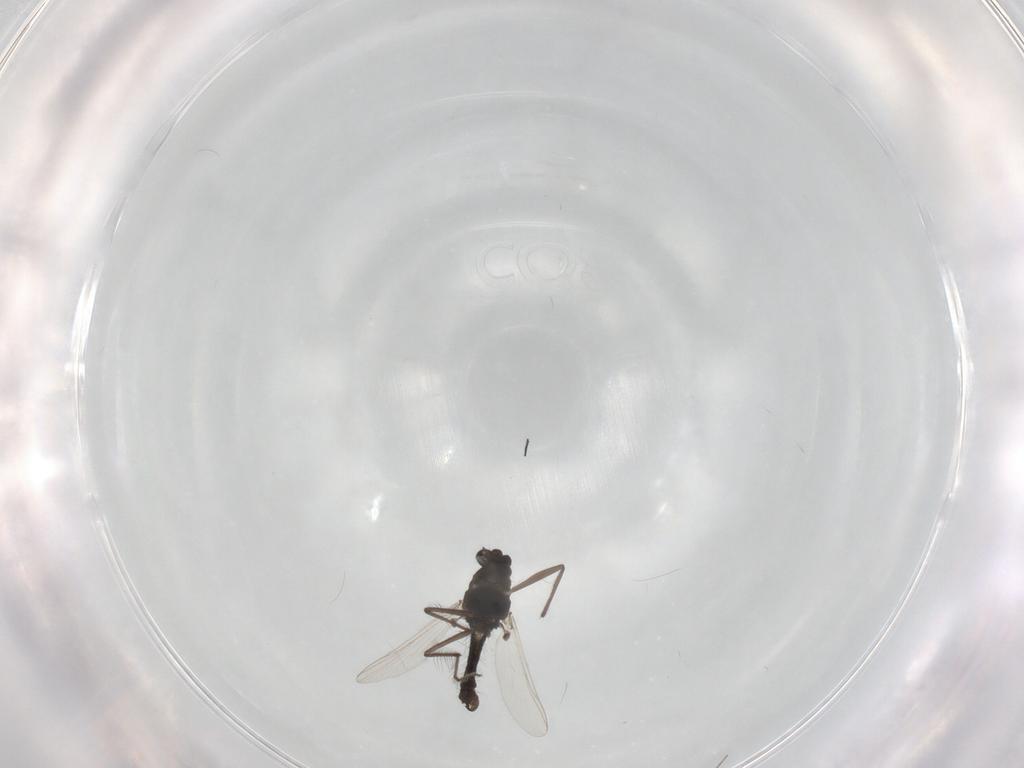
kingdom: Animalia
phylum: Arthropoda
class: Insecta
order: Diptera
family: Chironomidae
